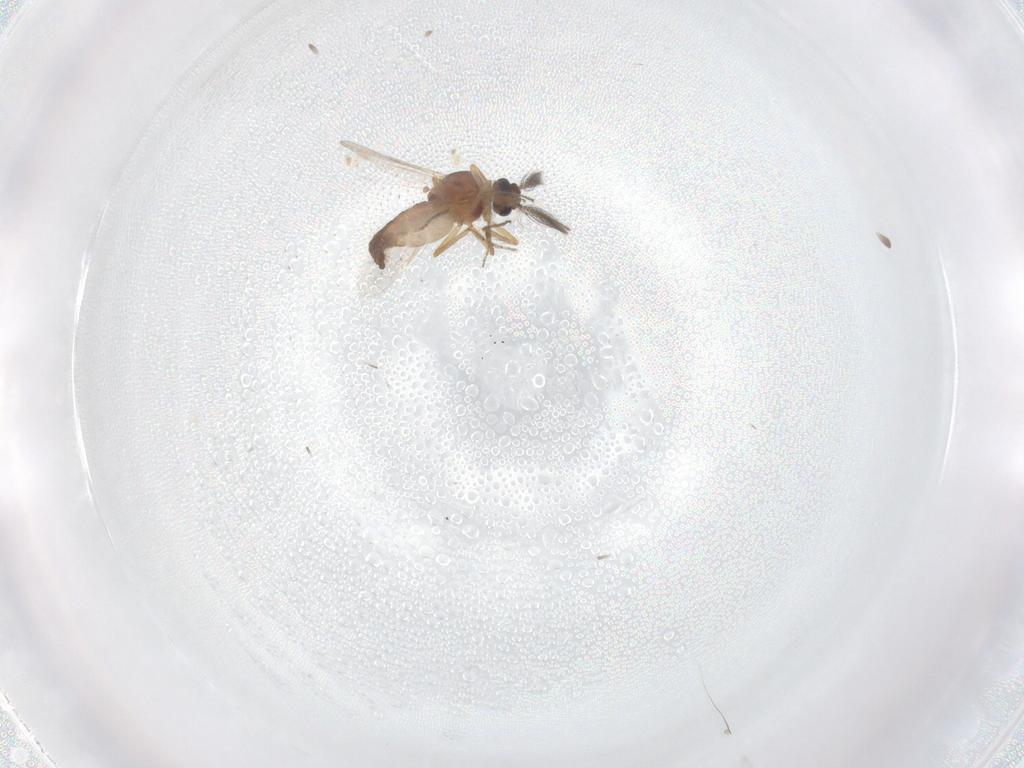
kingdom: Animalia
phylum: Arthropoda
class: Insecta
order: Diptera
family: Ceratopogonidae
